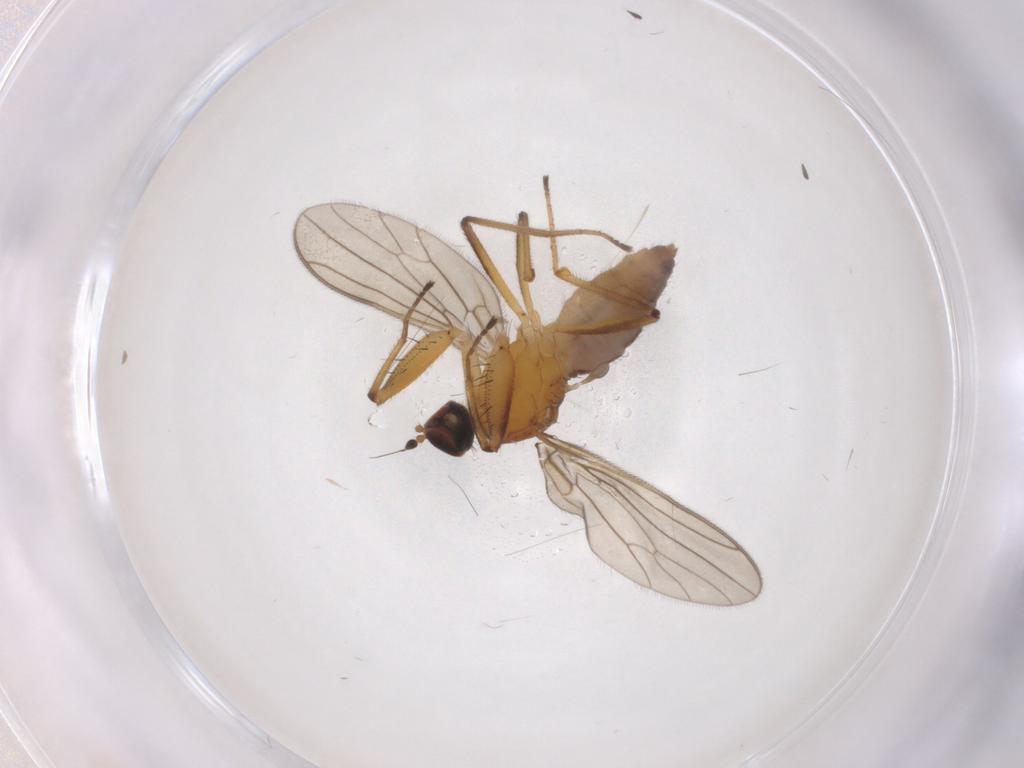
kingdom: Animalia
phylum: Arthropoda
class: Insecta
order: Diptera
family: Empididae
